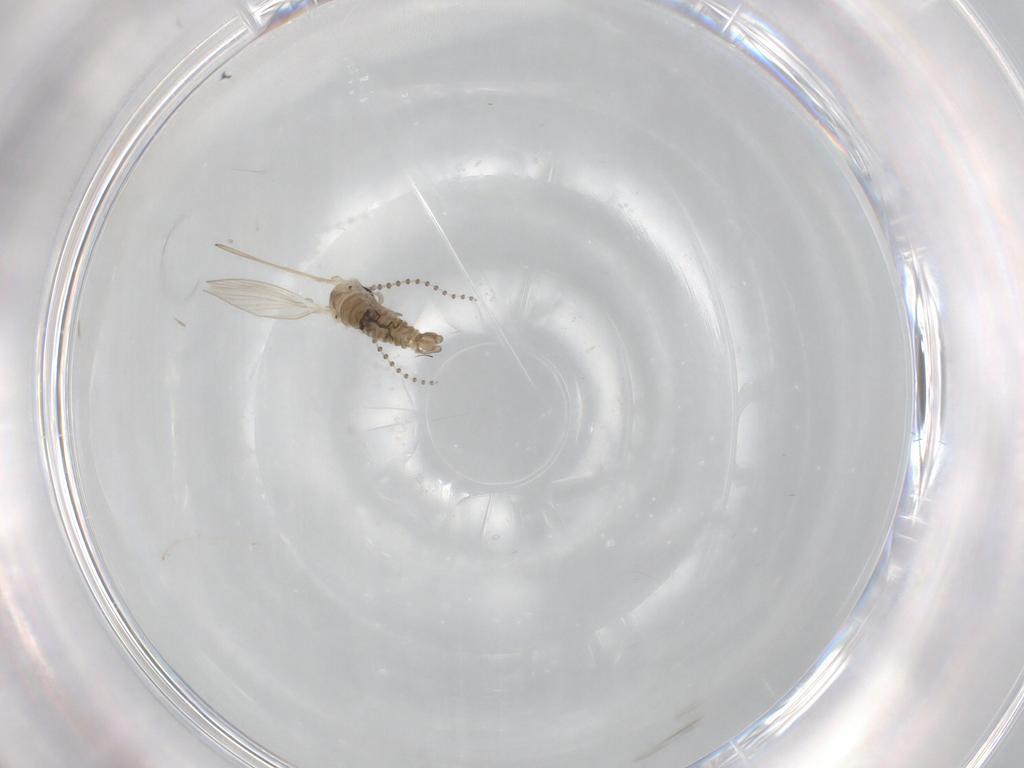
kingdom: Animalia
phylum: Arthropoda
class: Insecta
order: Diptera
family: Psychodidae
